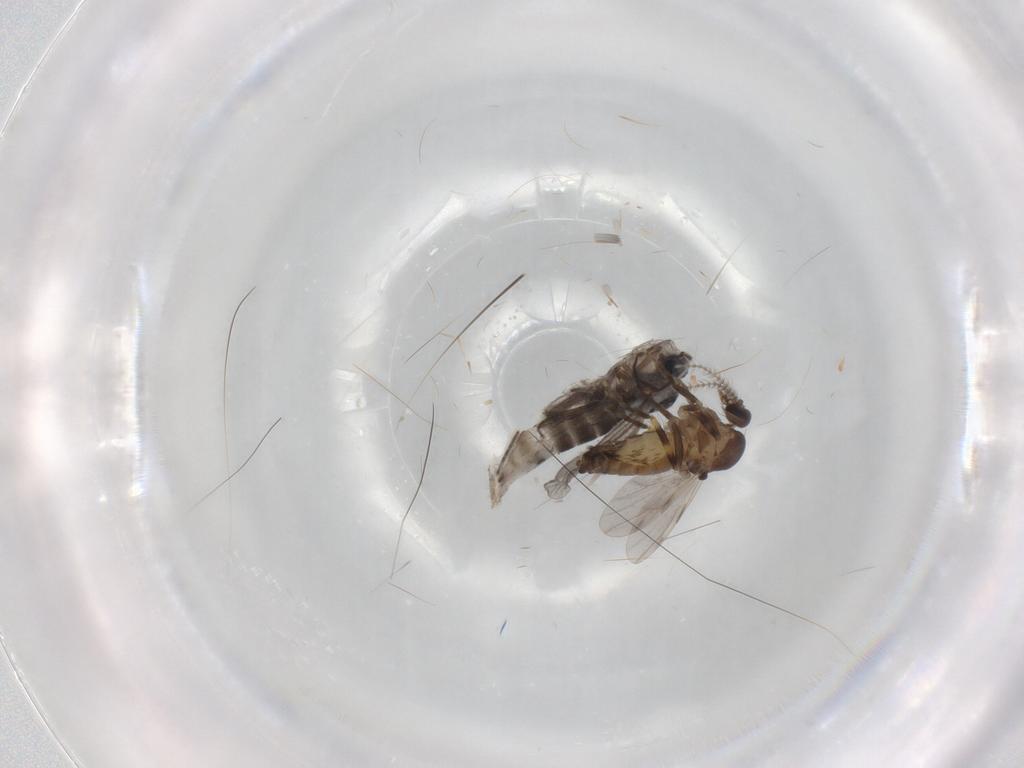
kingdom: Animalia
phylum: Arthropoda
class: Insecta
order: Diptera
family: Ceratopogonidae
